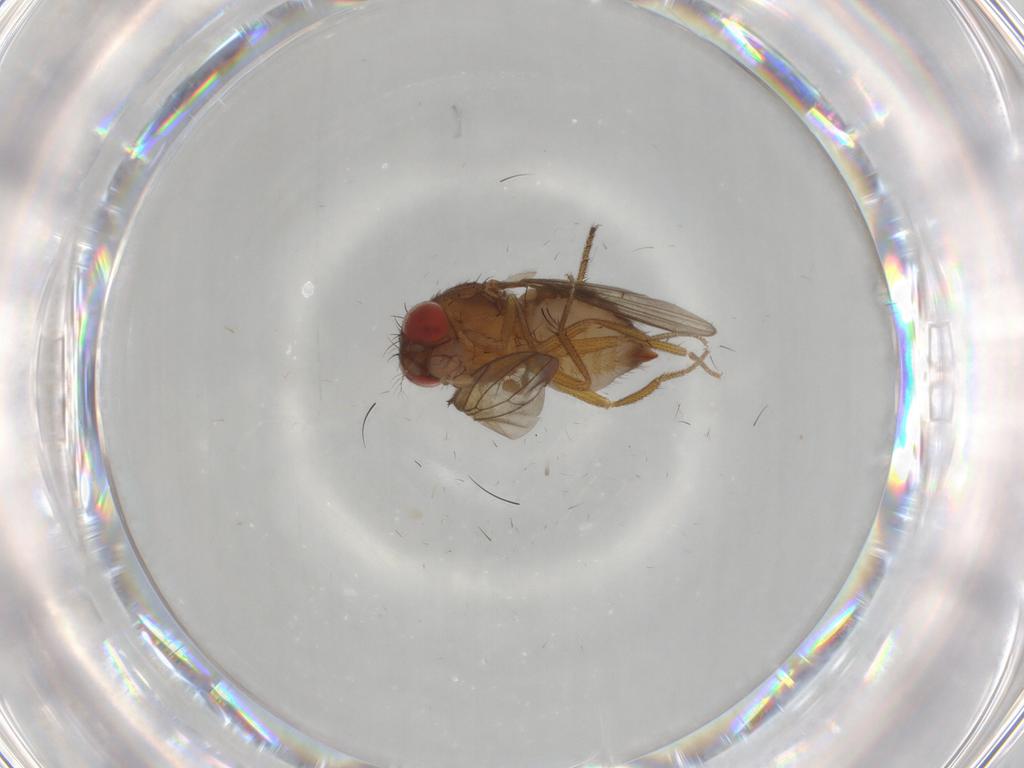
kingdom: Animalia
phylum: Arthropoda
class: Insecta
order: Diptera
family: Drosophilidae
